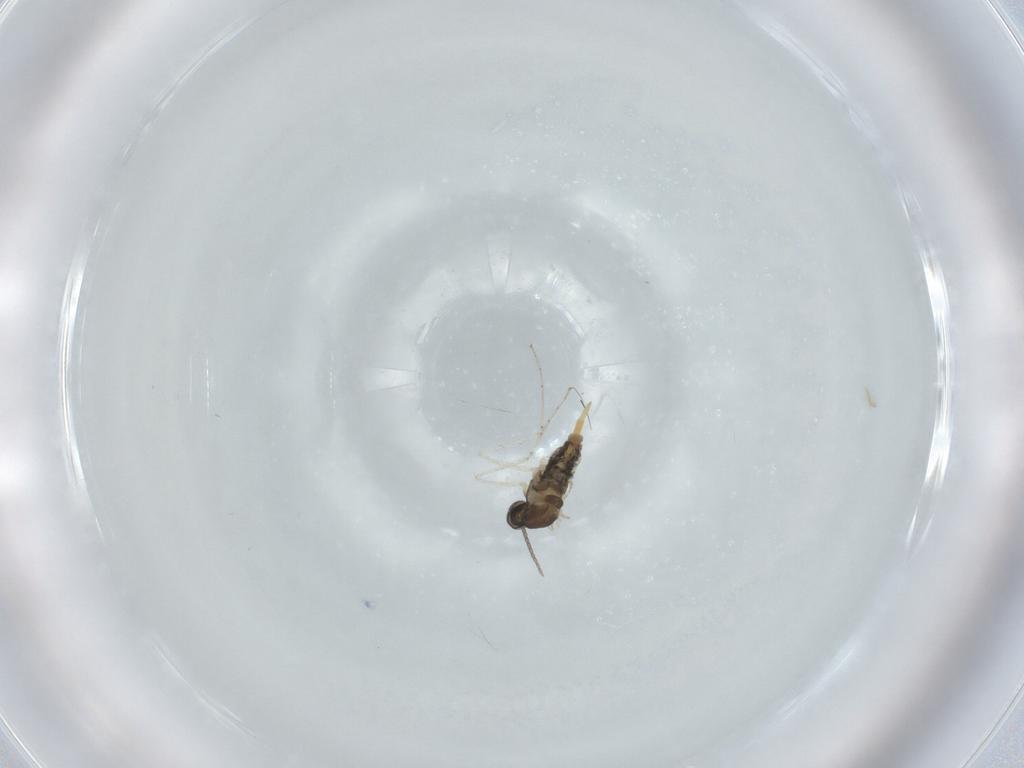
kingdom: Animalia
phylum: Arthropoda
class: Insecta
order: Diptera
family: Cecidomyiidae
